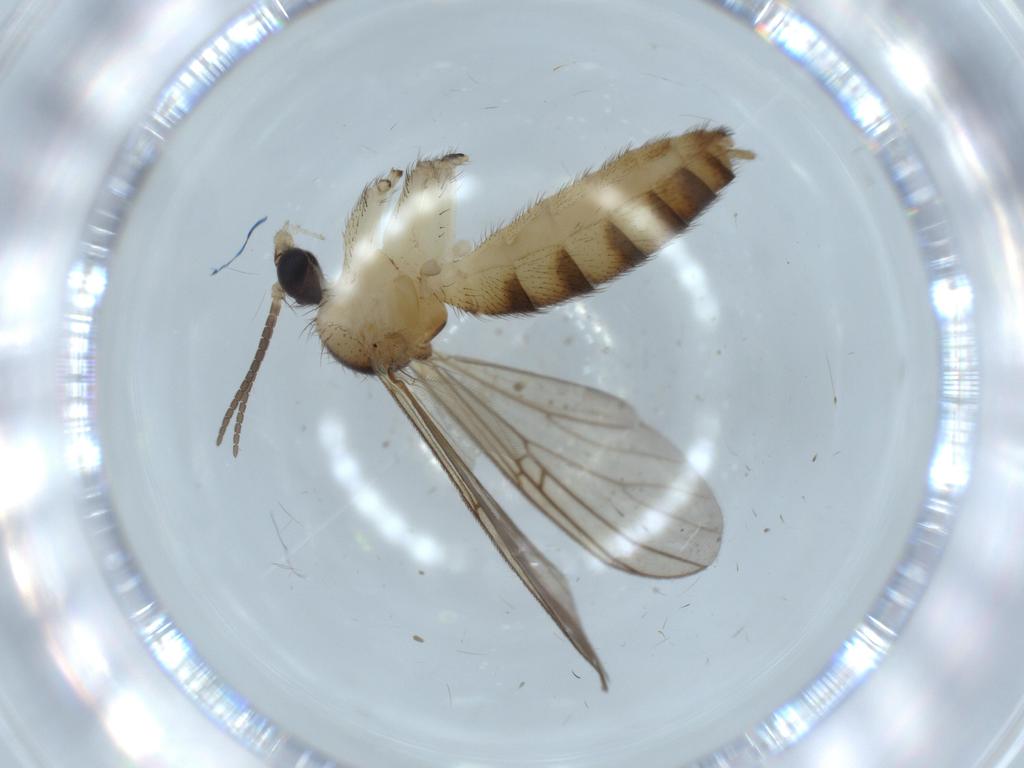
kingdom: Animalia
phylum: Arthropoda
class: Insecta
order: Diptera
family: Mycetophilidae
